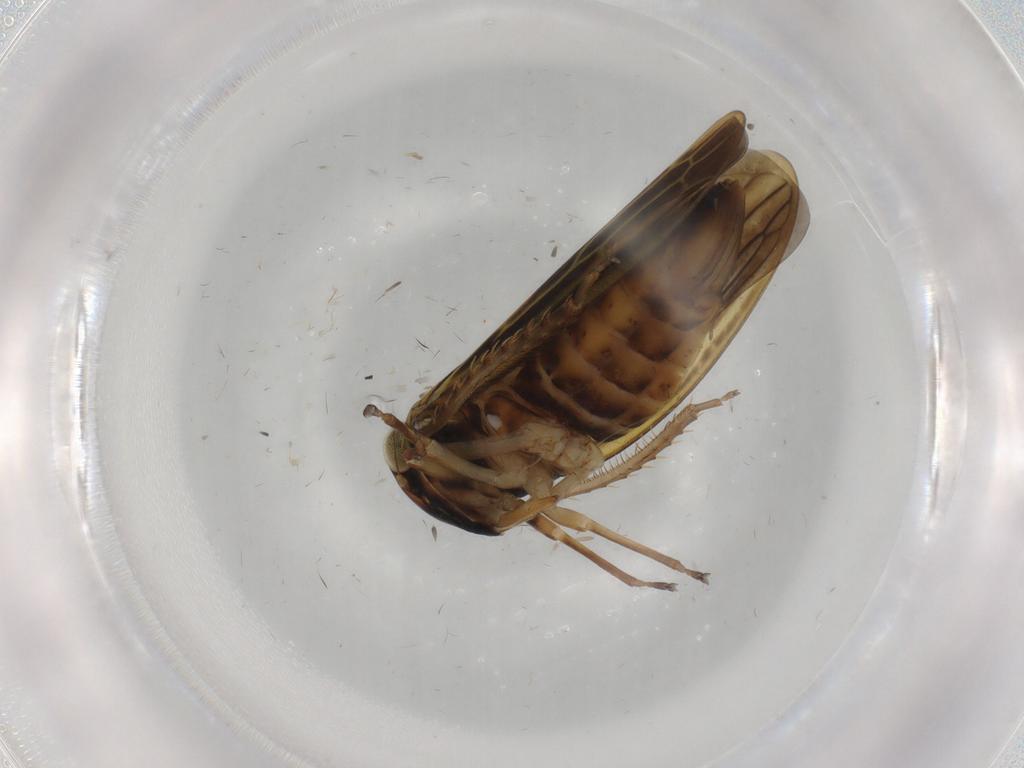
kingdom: Animalia
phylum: Arthropoda
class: Insecta
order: Hemiptera
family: Cicadellidae
